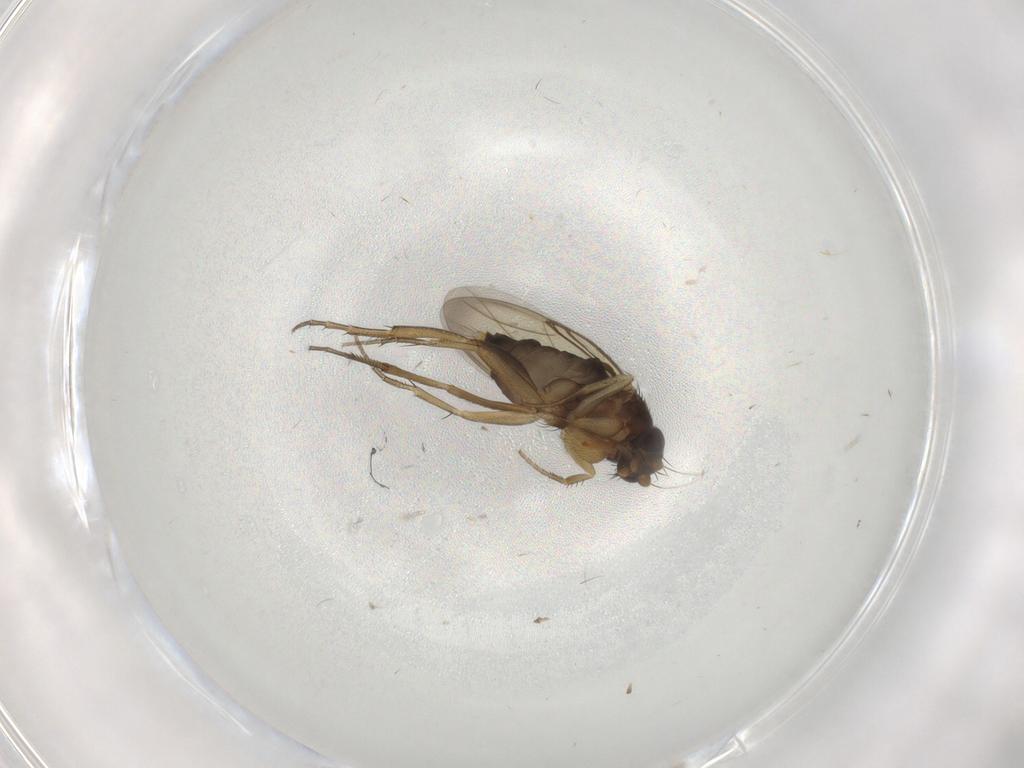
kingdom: Animalia
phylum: Arthropoda
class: Insecta
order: Diptera
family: Phoridae
